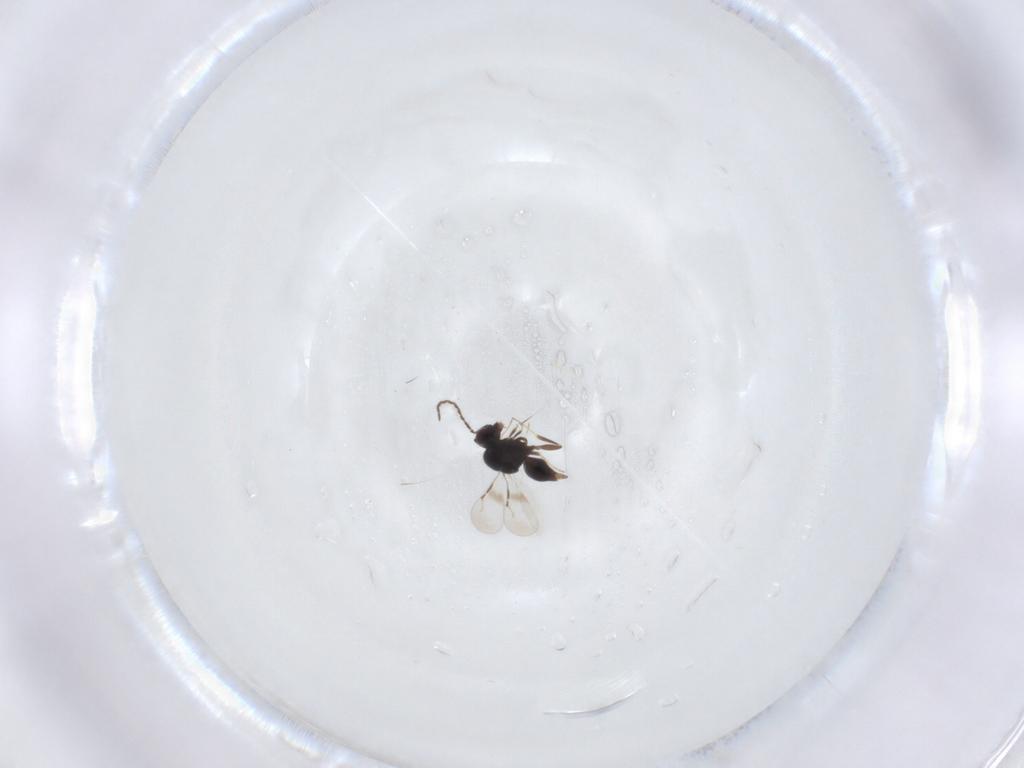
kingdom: Animalia
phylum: Arthropoda
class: Insecta
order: Hymenoptera
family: Ceraphronidae
